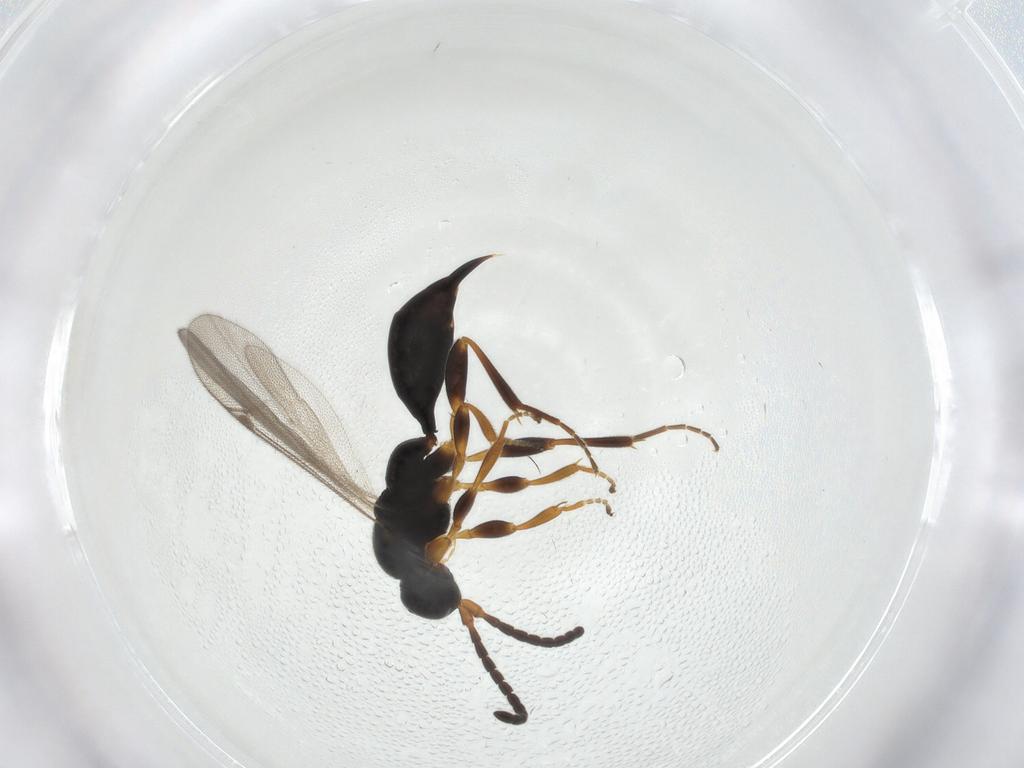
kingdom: Animalia
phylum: Arthropoda
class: Insecta
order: Hymenoptera
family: Proctotrupidae
